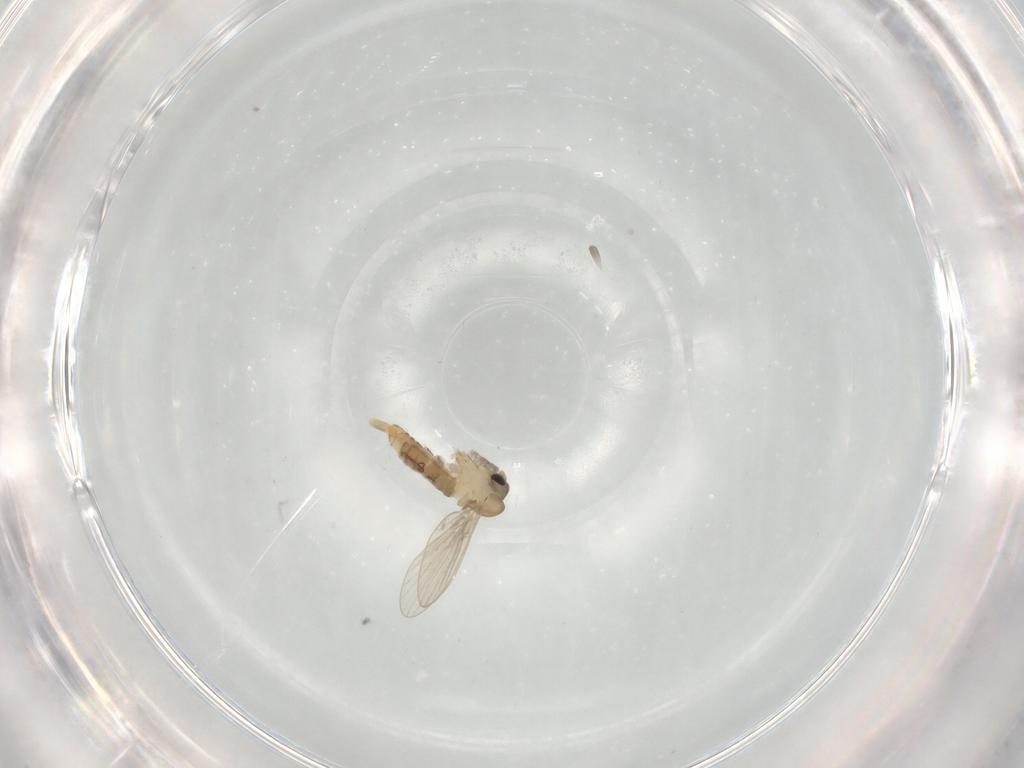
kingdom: Animalia
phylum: Arthropoda
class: Insecta
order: Diptera
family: Psychodidae
